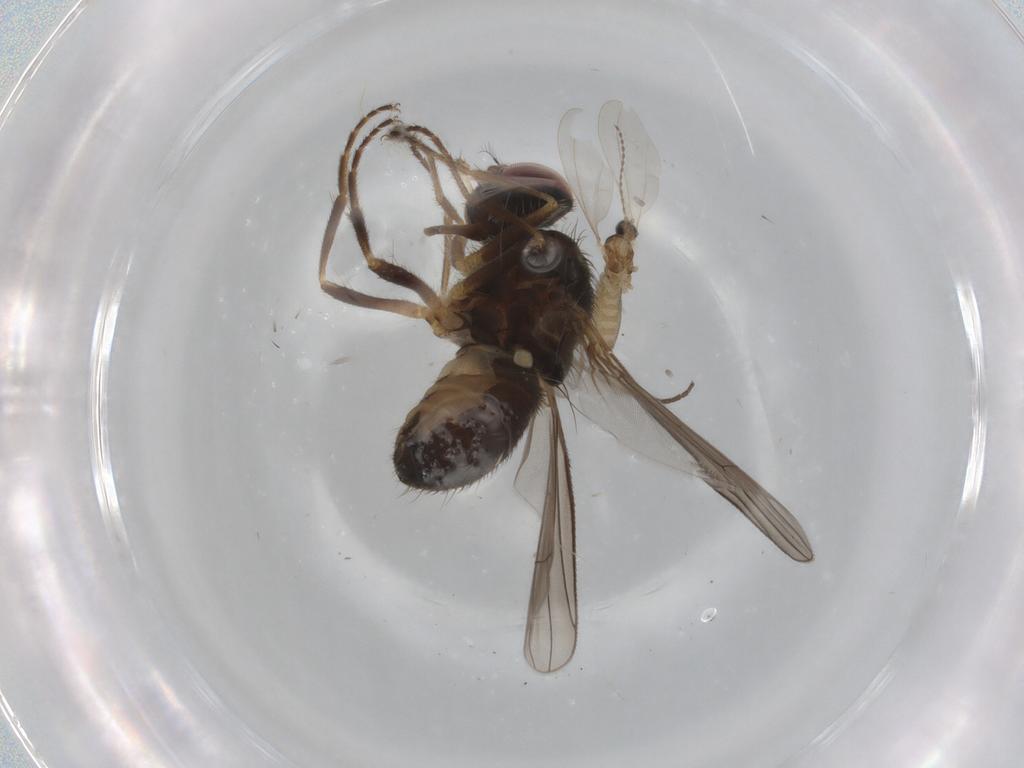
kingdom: Animalia
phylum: Arthropoda
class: Insecta
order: Diptera
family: Muscidae
